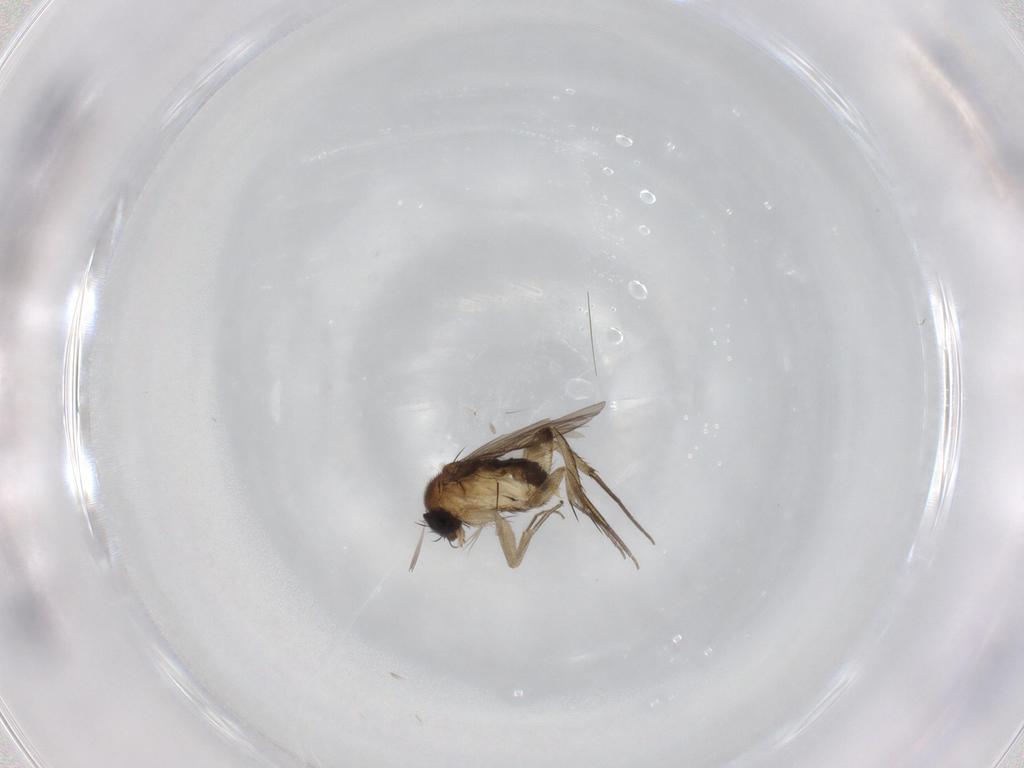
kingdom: Animalia
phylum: Arthropoda
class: Insecta
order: Diptera
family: Phoridae
